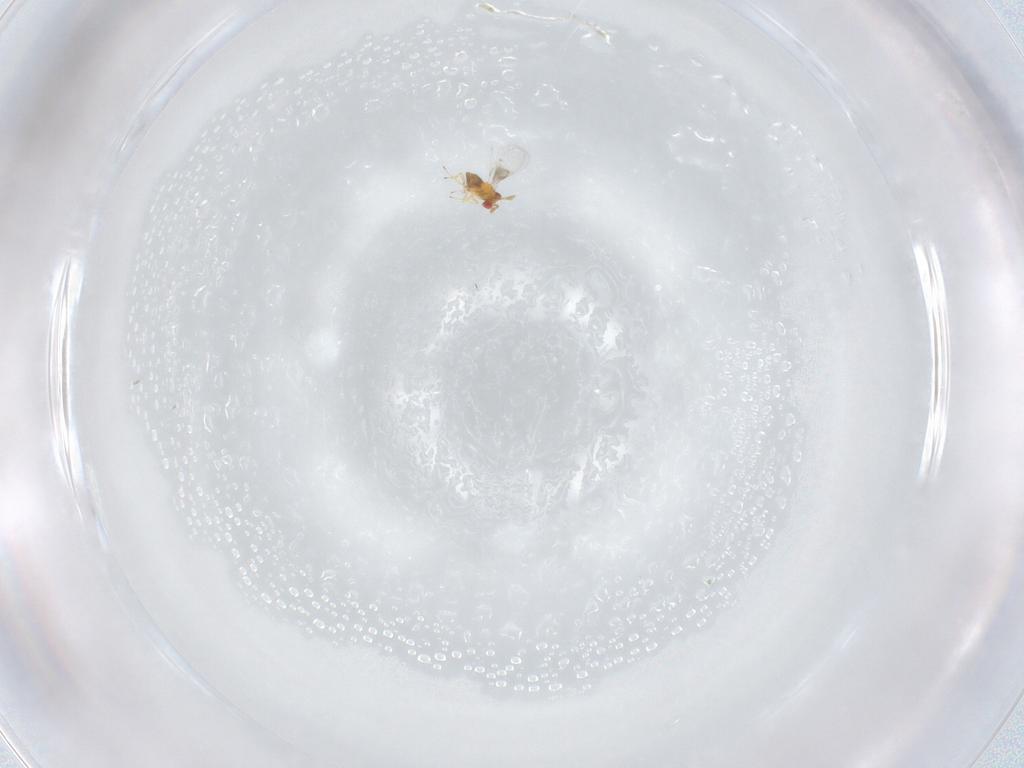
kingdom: Animalia
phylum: Arthropoda
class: Insecta
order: Hymenoptera
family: Trichogrammatidae
